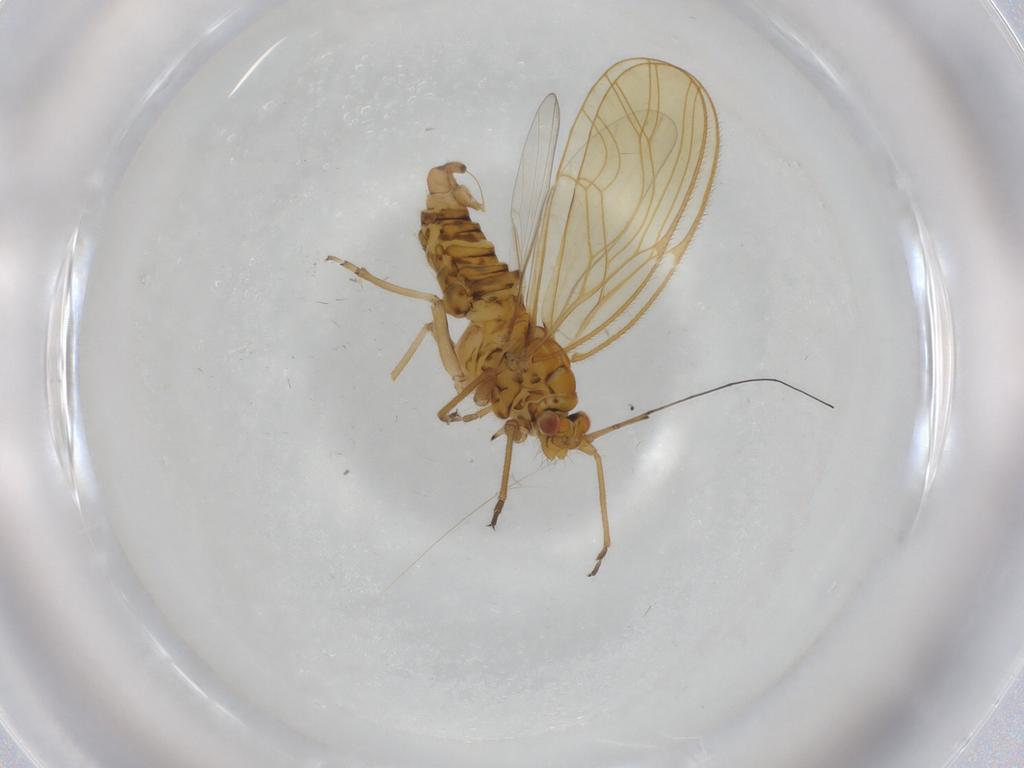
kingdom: Animalia
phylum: Arthropoda
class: Insecta
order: Hemiptera
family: Psyllidae
